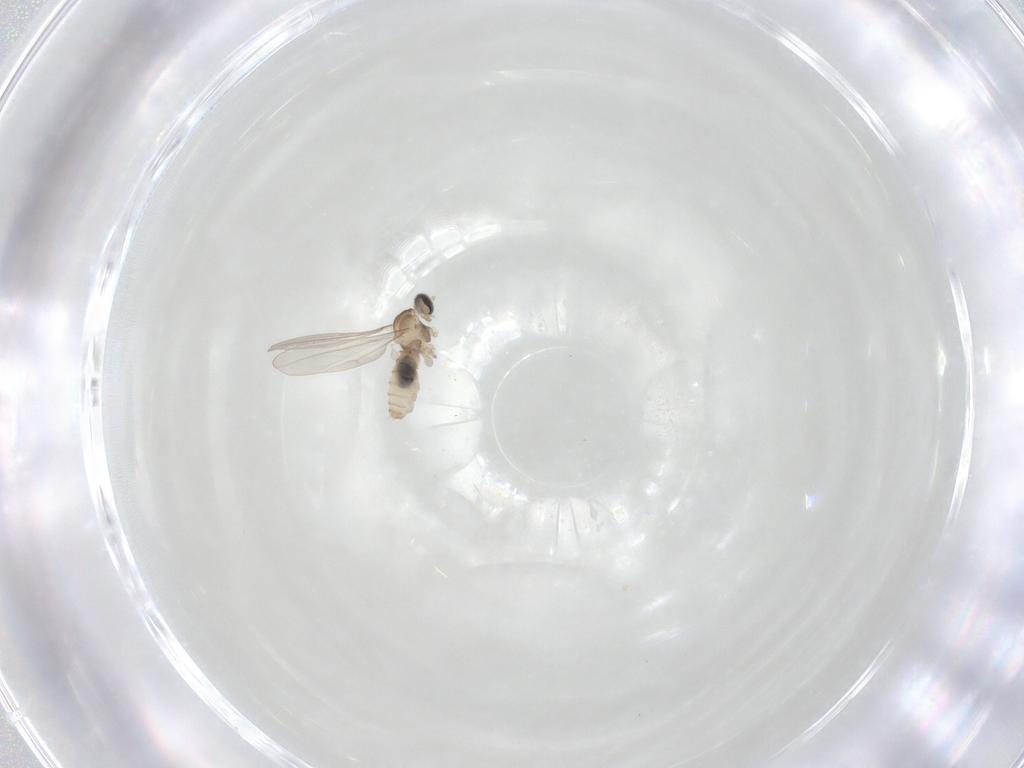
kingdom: Animalia
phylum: Arthropoda
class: Insecta
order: Diptera
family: Cecidomyiidae
